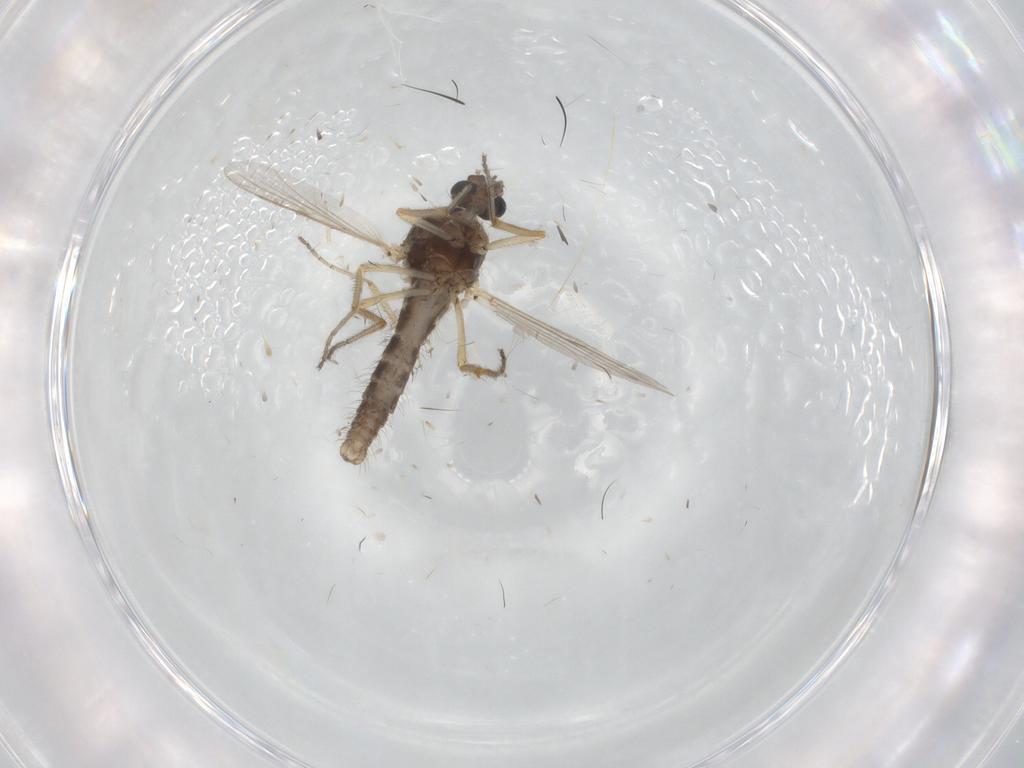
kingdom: Animalia
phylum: Arthropoda
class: Insecta
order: Diptera
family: Ceratopogonidae
